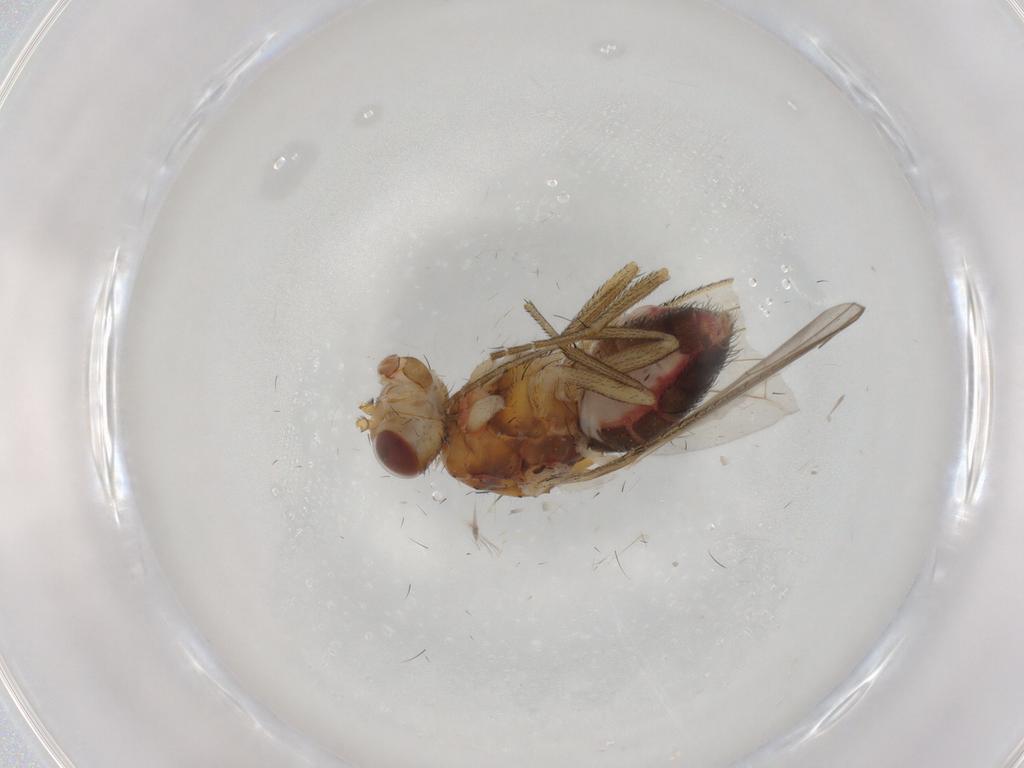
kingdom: Animalia
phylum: Arthropoda
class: Insecta
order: Diptera
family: Heleomyzidae
